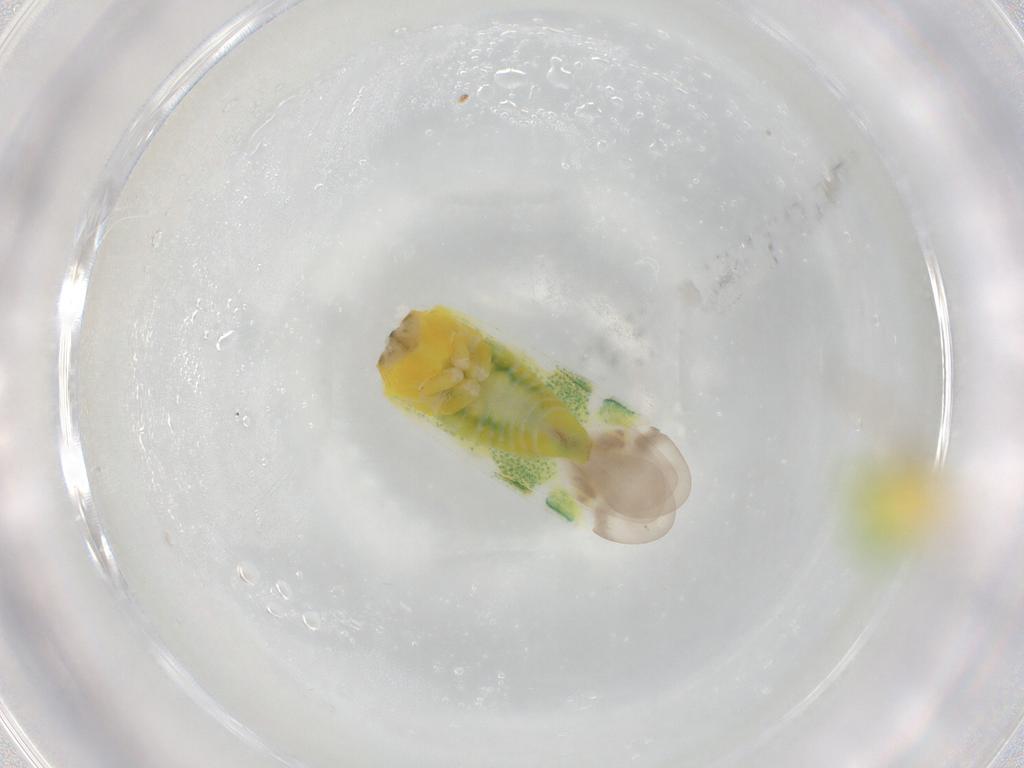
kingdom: Animalia
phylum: Arthropoda
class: Insecta
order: Hemiptera
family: Miridae
